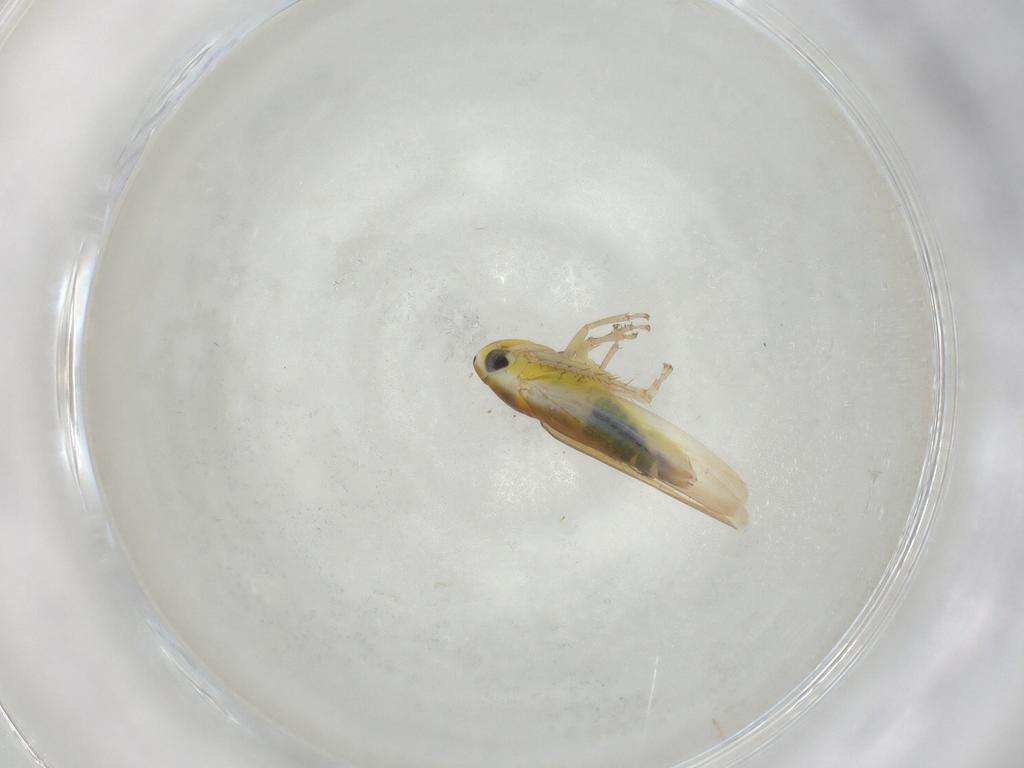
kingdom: Animalia
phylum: Arthropoda
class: Insecta
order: Hemiptera
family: Cicadellidae
